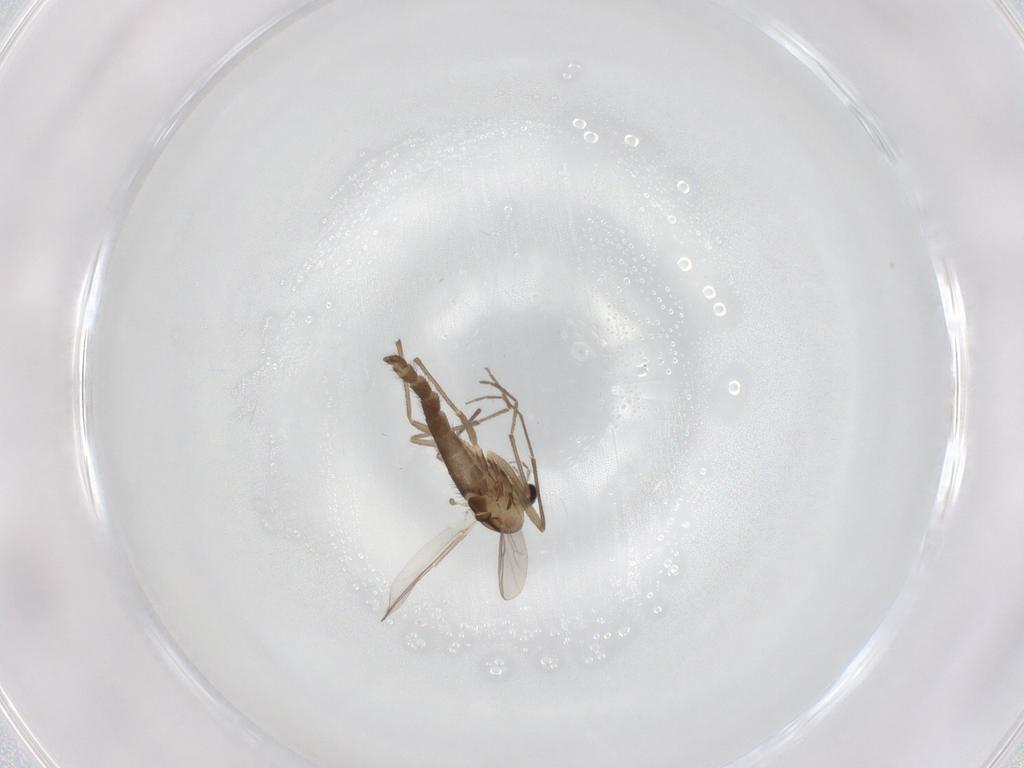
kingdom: Animalia
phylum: Arthropoda
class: Insecta
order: Diptera
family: Chironomidae
